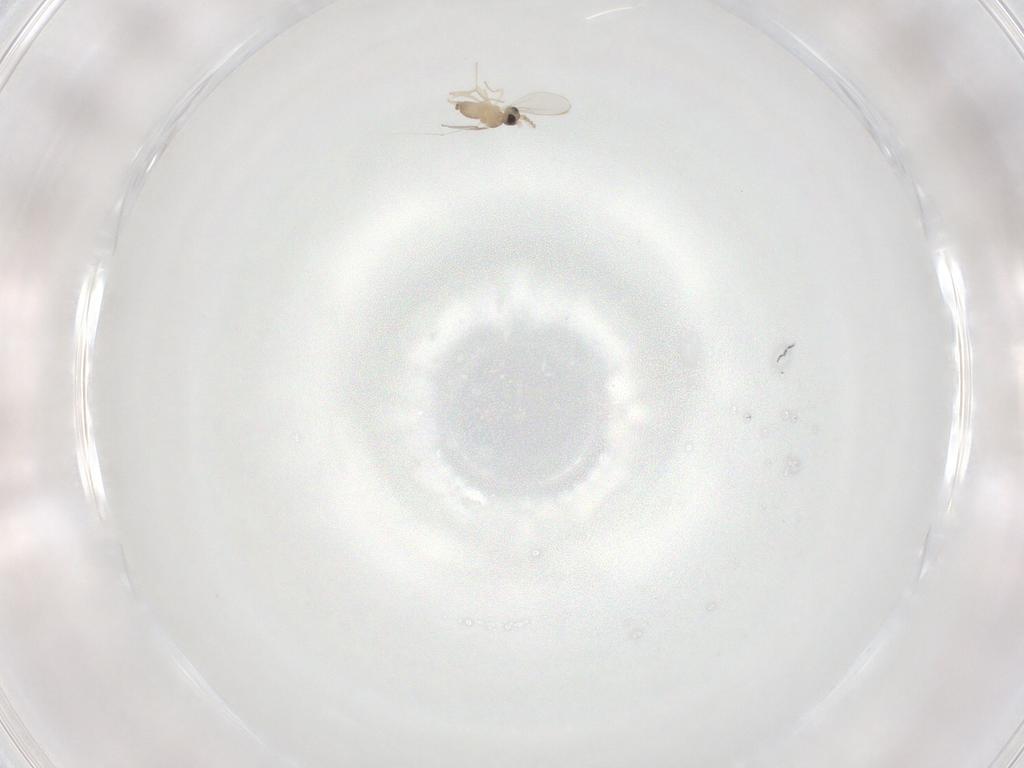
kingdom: Animalia
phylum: Arthropoda
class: Insecta
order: Diptera
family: Cecidomyiidae
